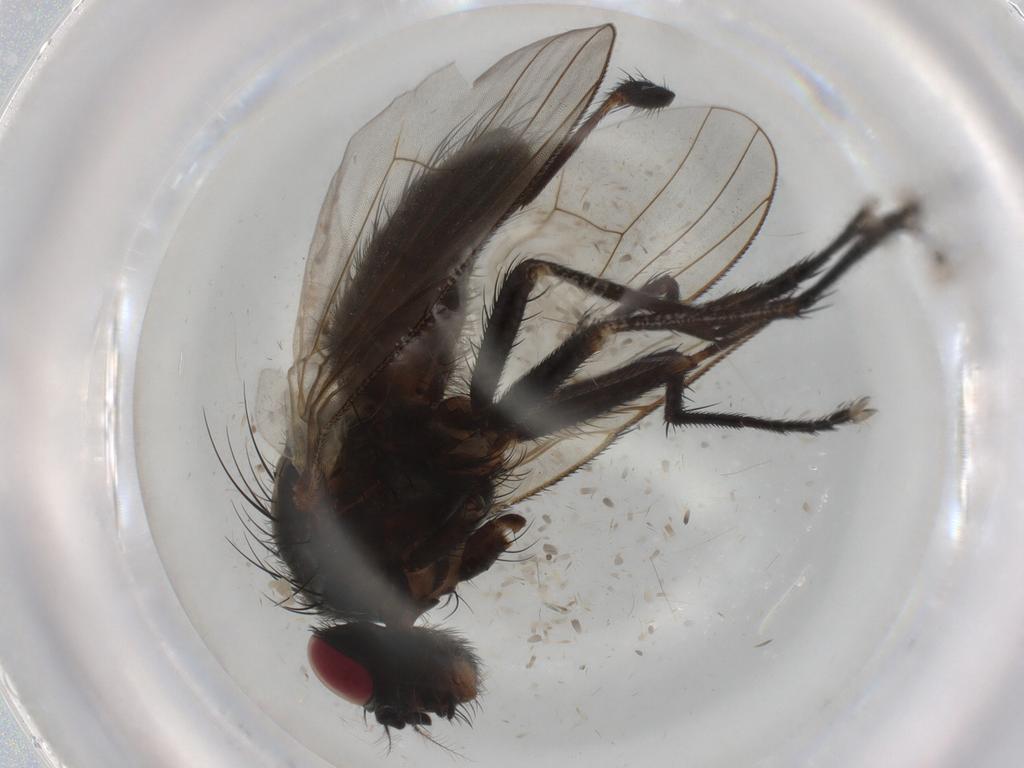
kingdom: Animalia
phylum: Arthropoda
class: Insecta
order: Diptera
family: Muscidae
